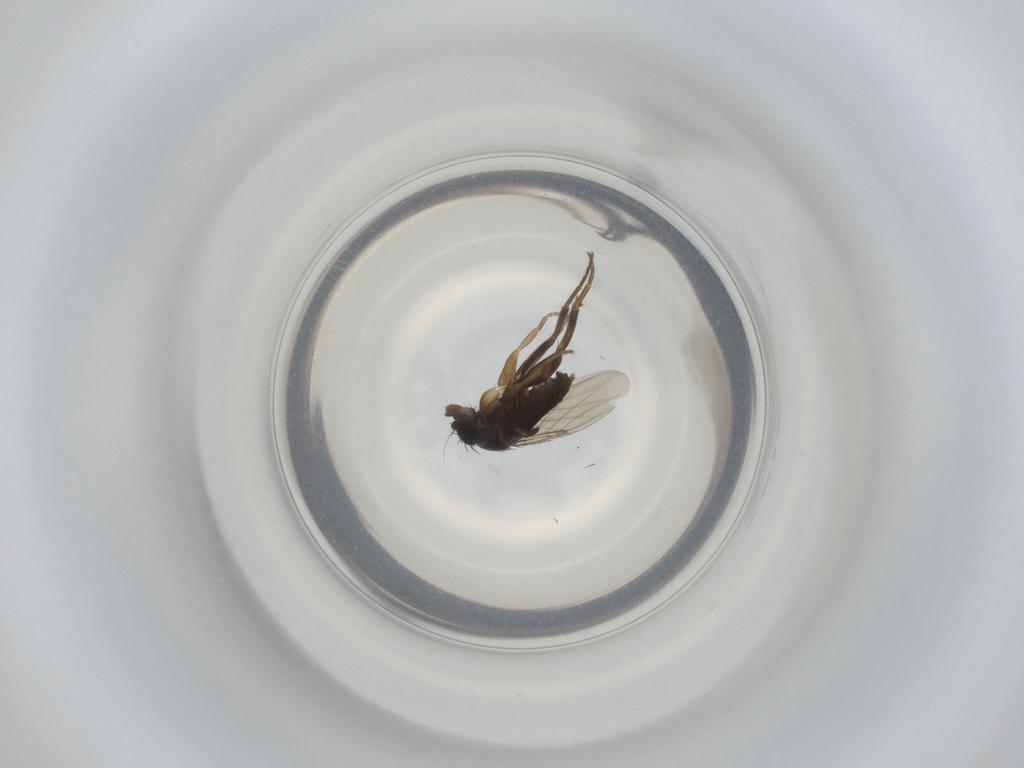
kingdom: Animalia
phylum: Arthropoda
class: Insecta
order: Diptera
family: Phoridae
